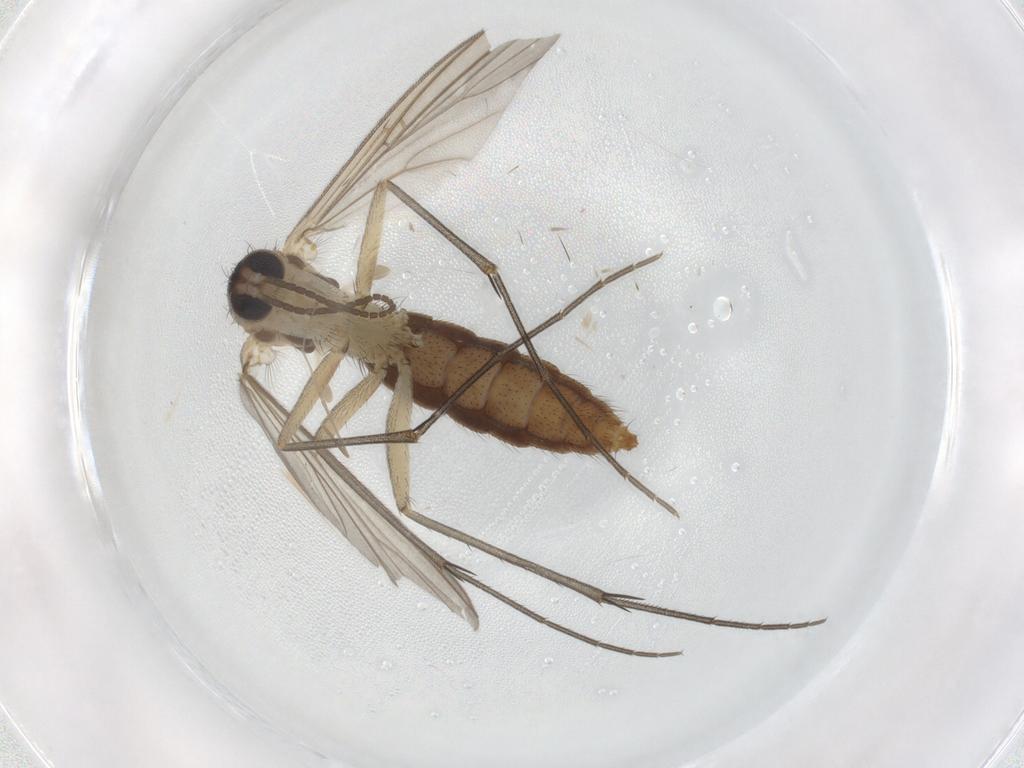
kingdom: Animalia
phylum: Arthropoda
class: Insecta
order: Diptera
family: Mycetophilidae
